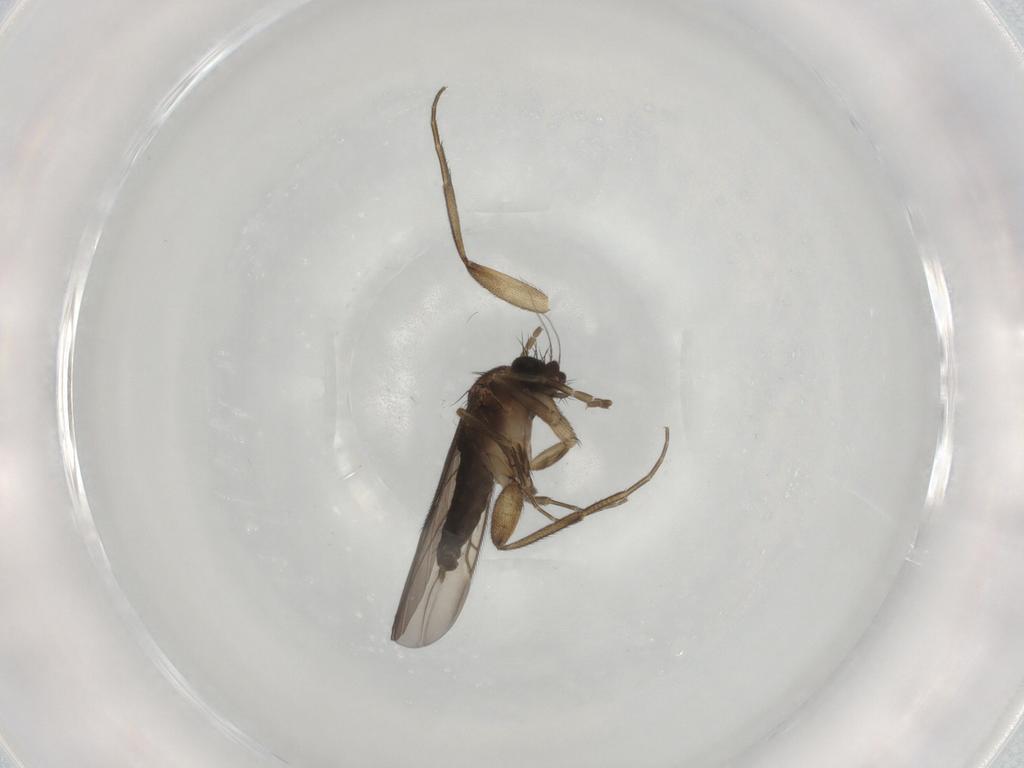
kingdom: Animalia
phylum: Arthropoda
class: Insecta
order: Diptera
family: Phoridae
